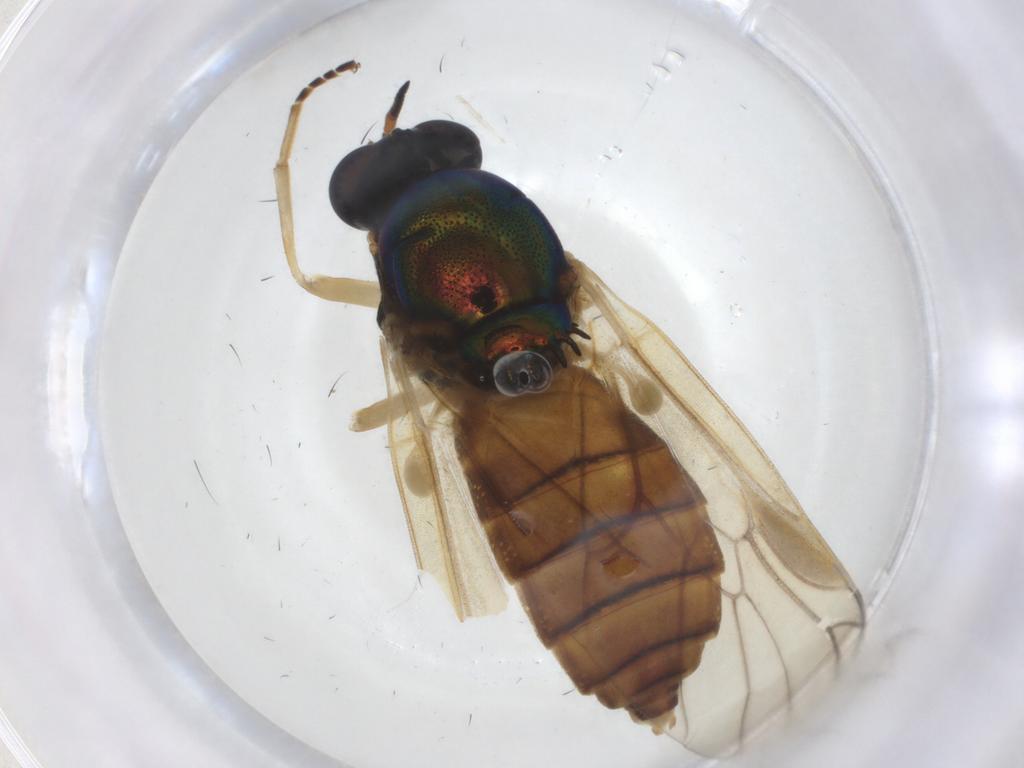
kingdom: Animalia
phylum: Arthropoda
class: Insecta
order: Diptera
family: Stratiomyidae
